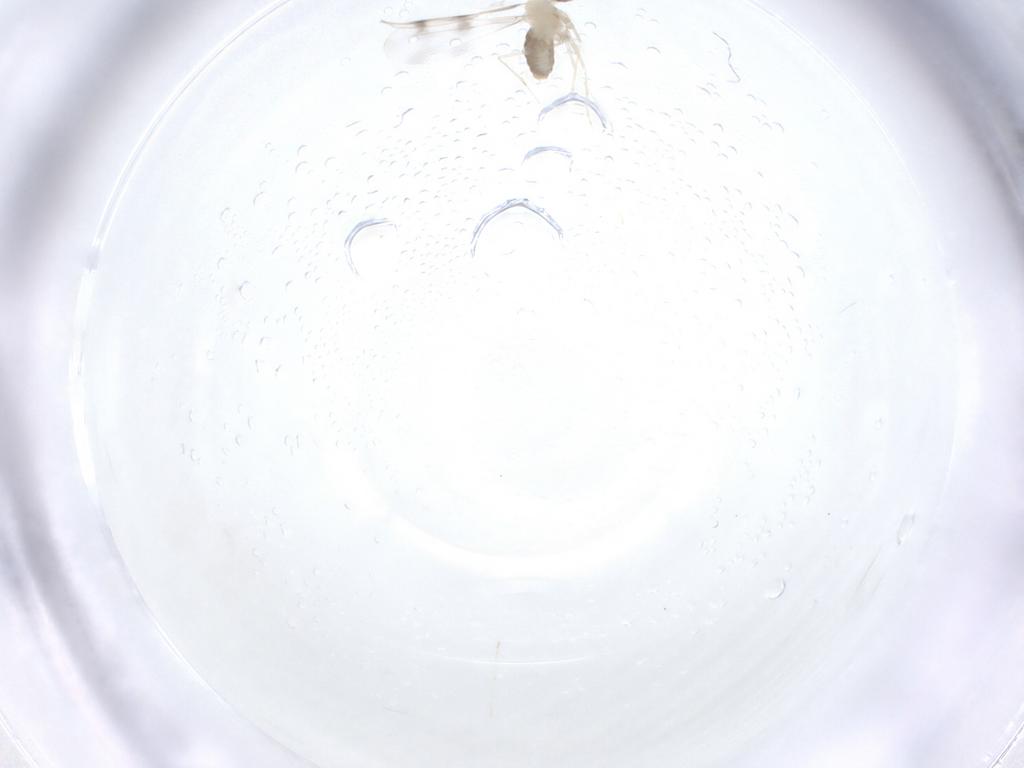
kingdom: Animalia
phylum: Arthropoda
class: Insecta
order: Diptera
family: Cecidomyiidae
